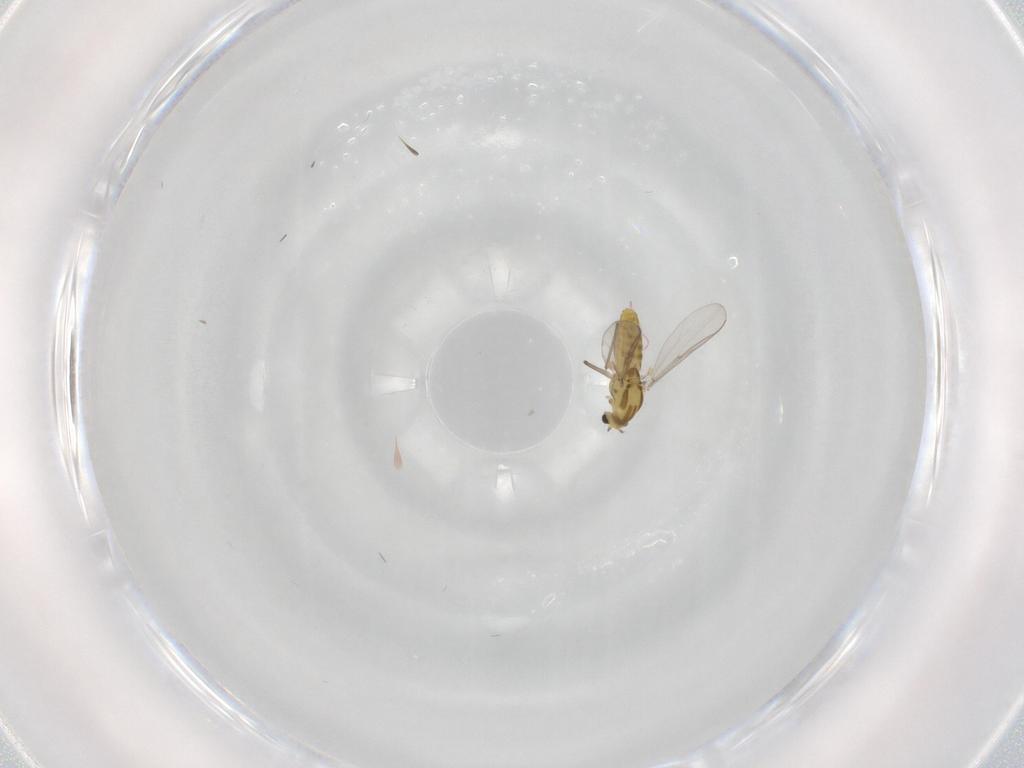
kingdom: Animalia
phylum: Arthropoda
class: Insecta
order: Diptera
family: Chironomidae
